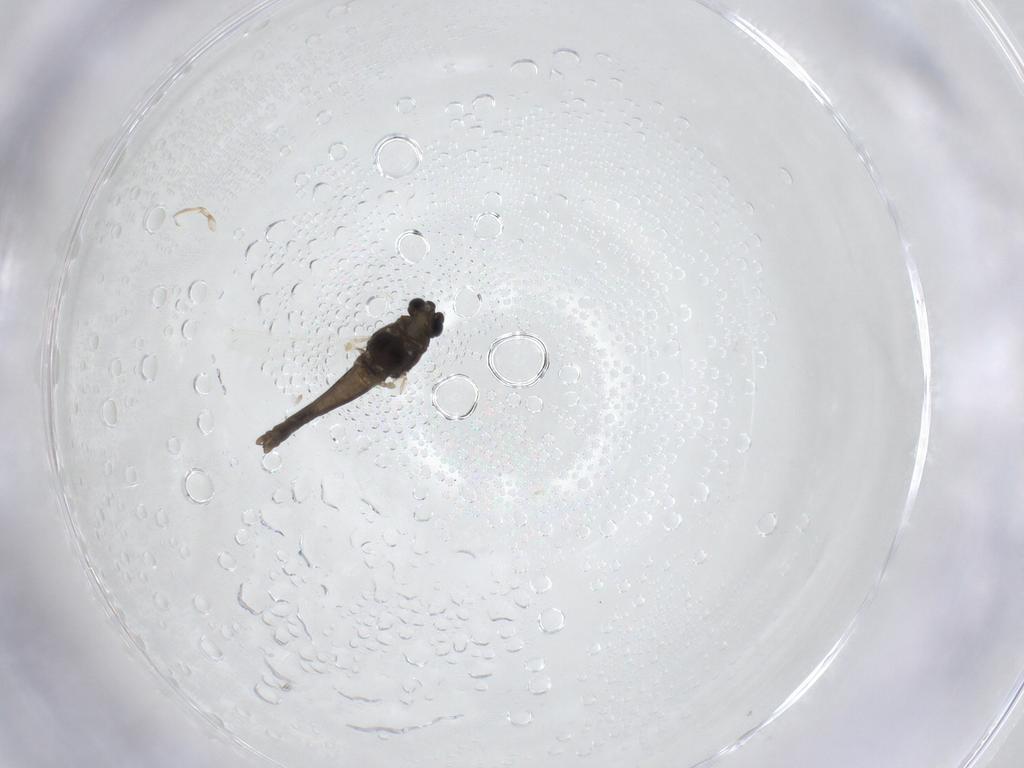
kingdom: Animalia
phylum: Arthropoda
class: Insecta
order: Diptera
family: Chironomidae
